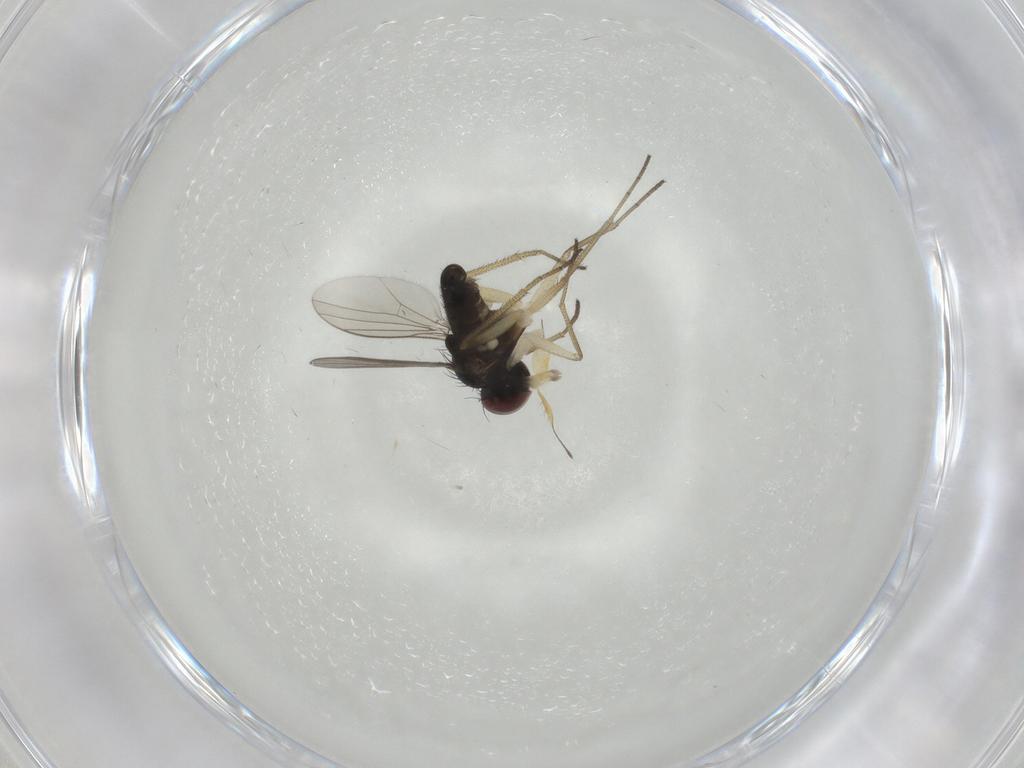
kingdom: Animalia
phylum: Arthropoda
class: Insecta
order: Diptera
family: Dolichopodidae
